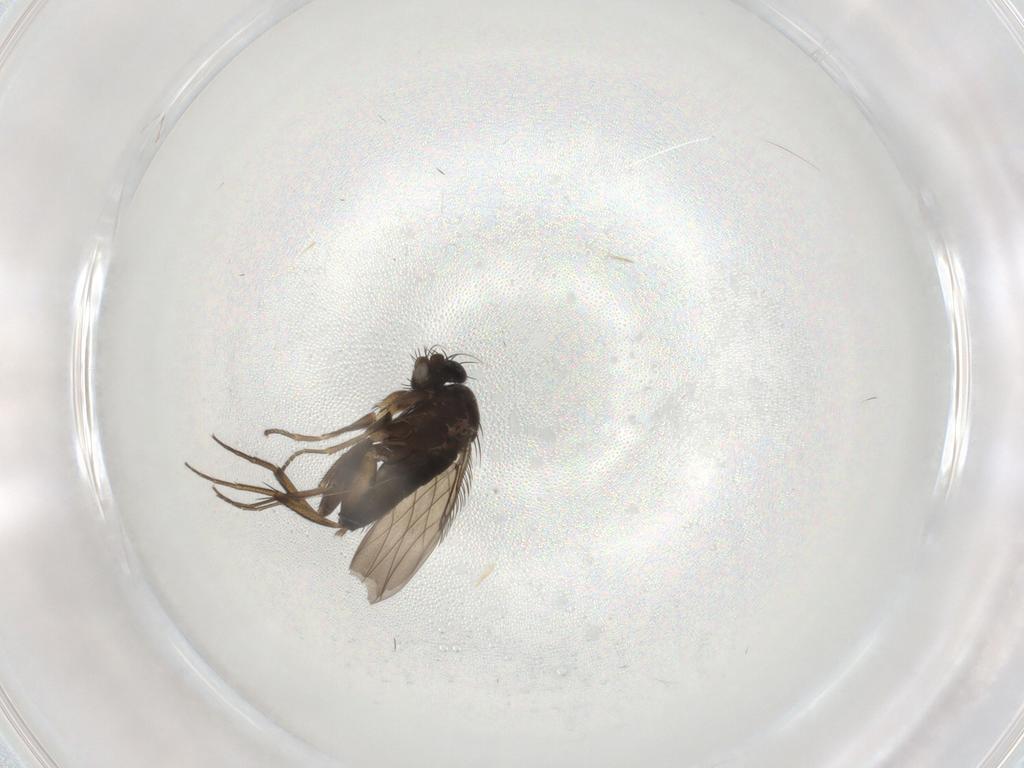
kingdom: Animalia
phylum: Arthropoda
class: Insecta
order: Diptera
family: Phoridae
